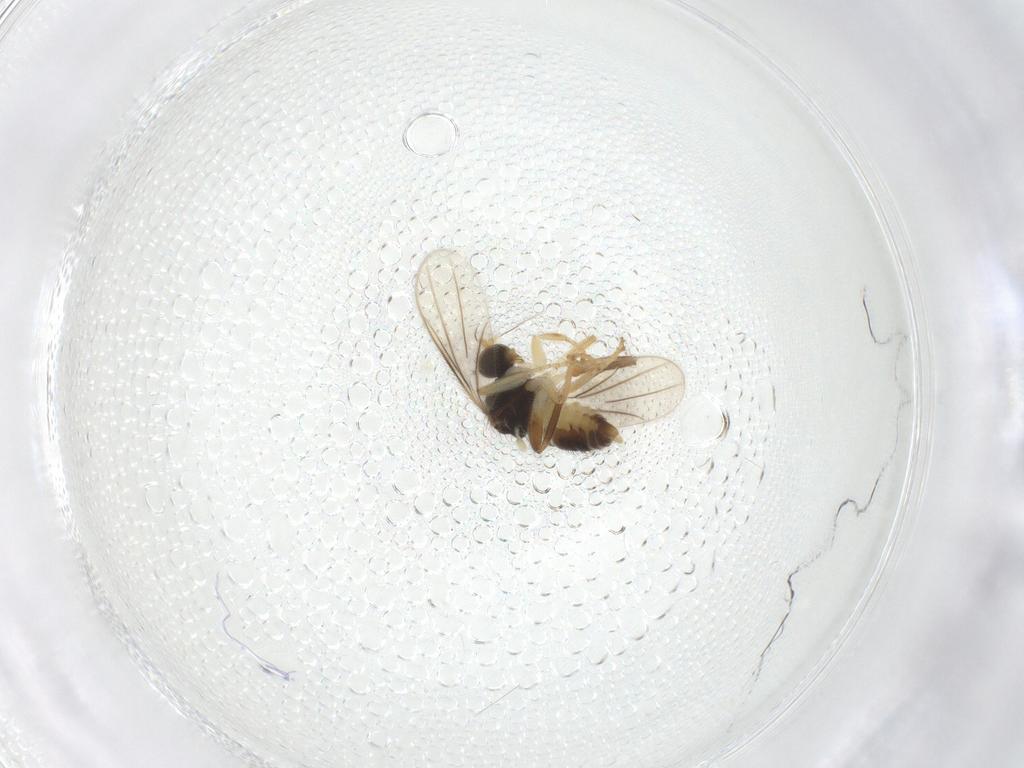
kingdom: Animalia
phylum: Arthropoda
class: Insecta
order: Diptera
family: Hybotidae
